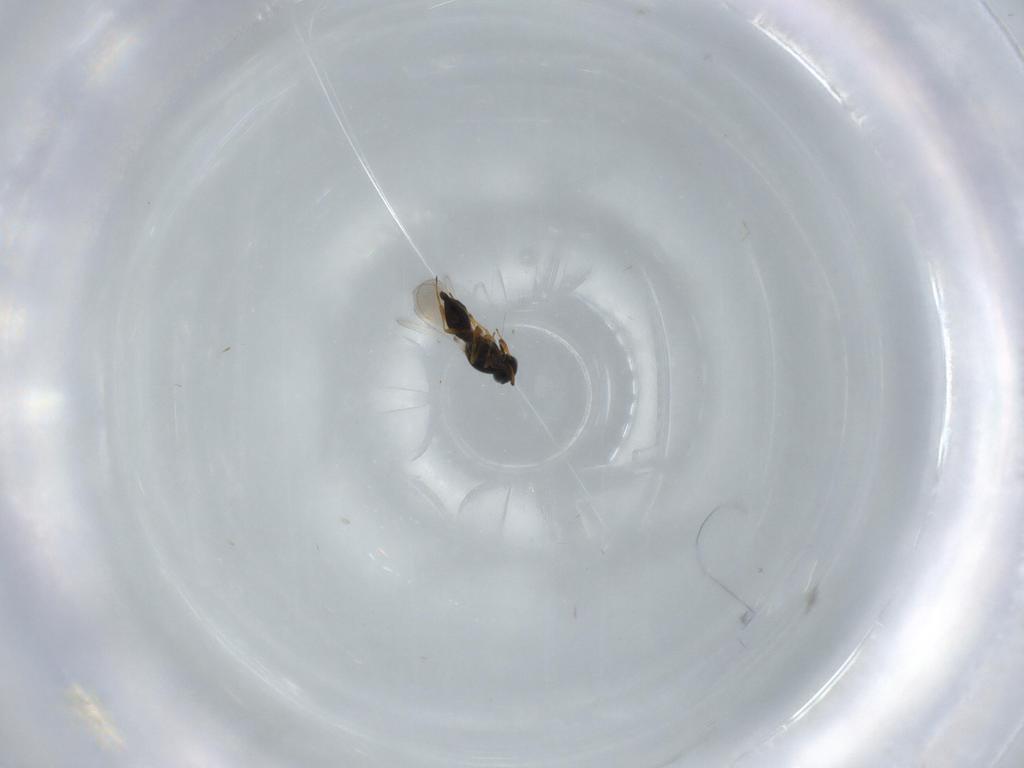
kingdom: Animalia
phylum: Arthropoda
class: Insecta
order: Hymenoptera
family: Platygastridae
